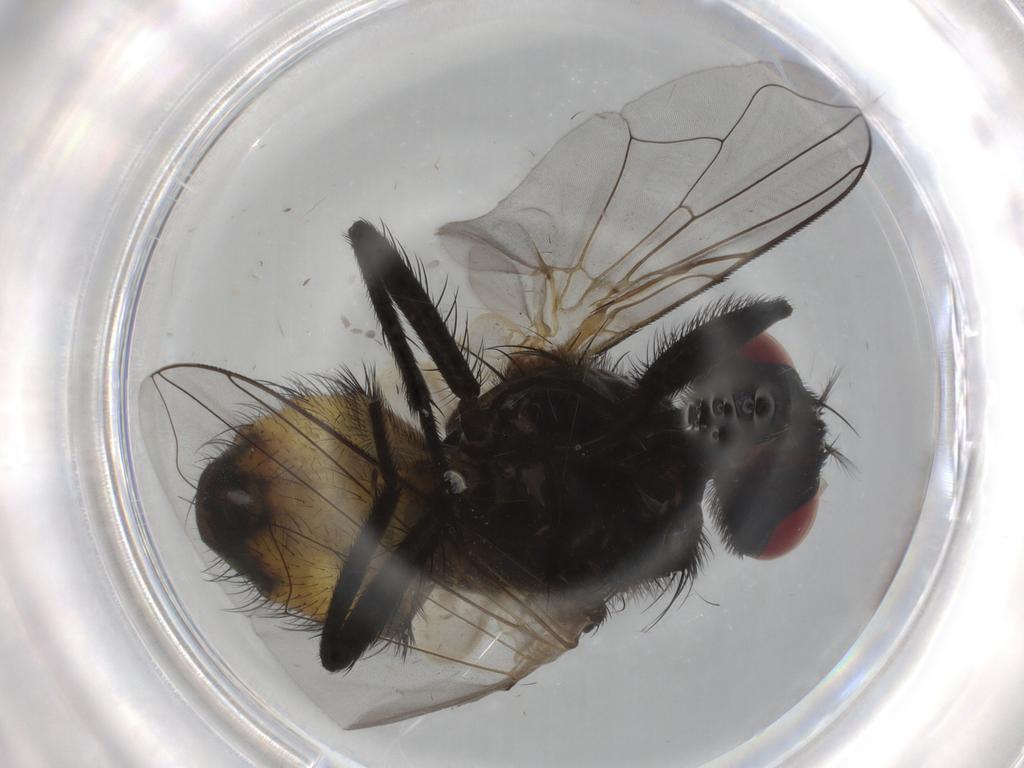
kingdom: Animalia
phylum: Arthropoda
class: Insecta
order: Diptera
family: Muscidae
